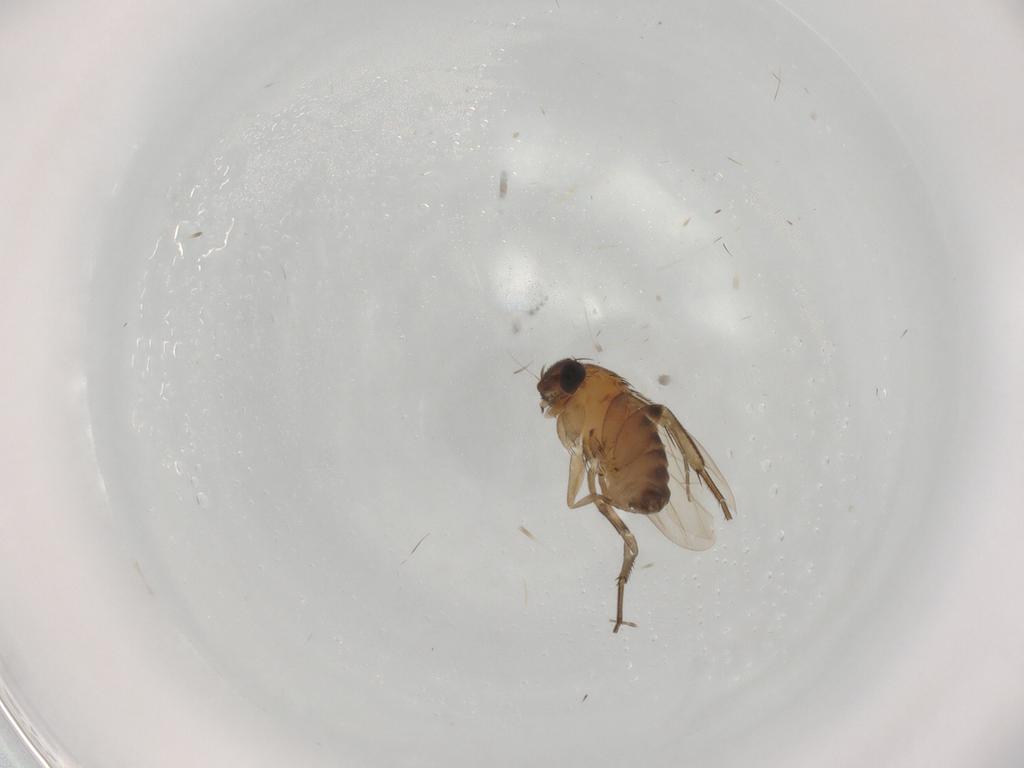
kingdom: Animalia
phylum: Arthropoda
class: Insecta
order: Diptera
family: Phoridae
